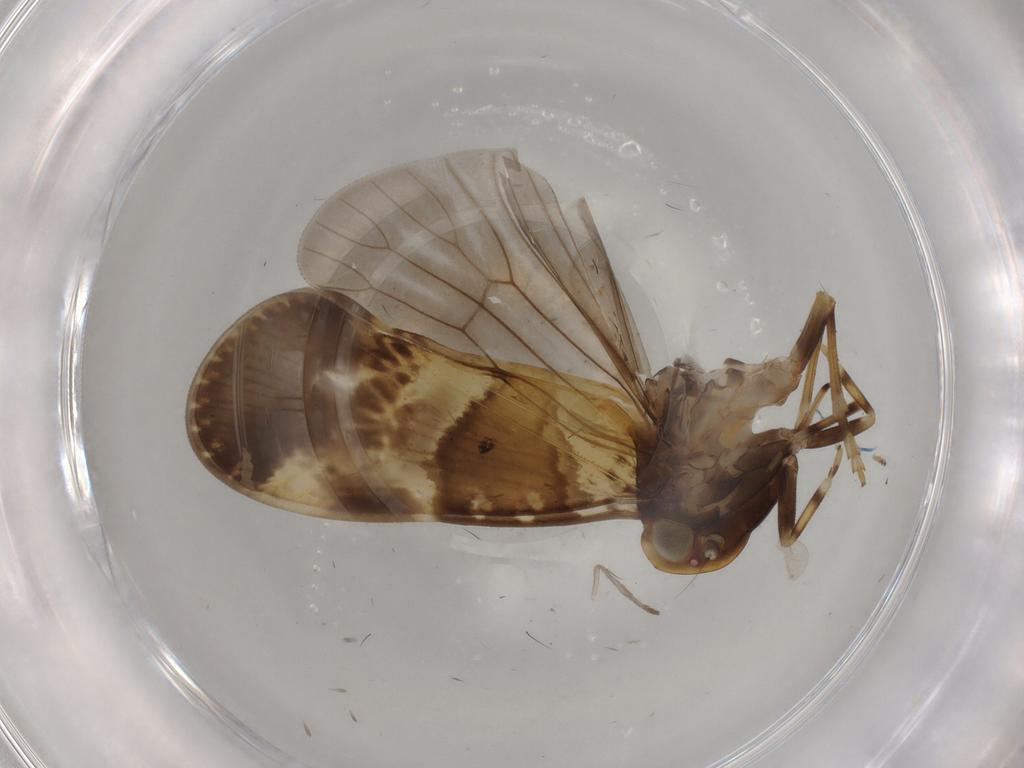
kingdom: Animalia
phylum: Arthropoda
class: Insecta
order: Hemiptera
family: Cixiidae
